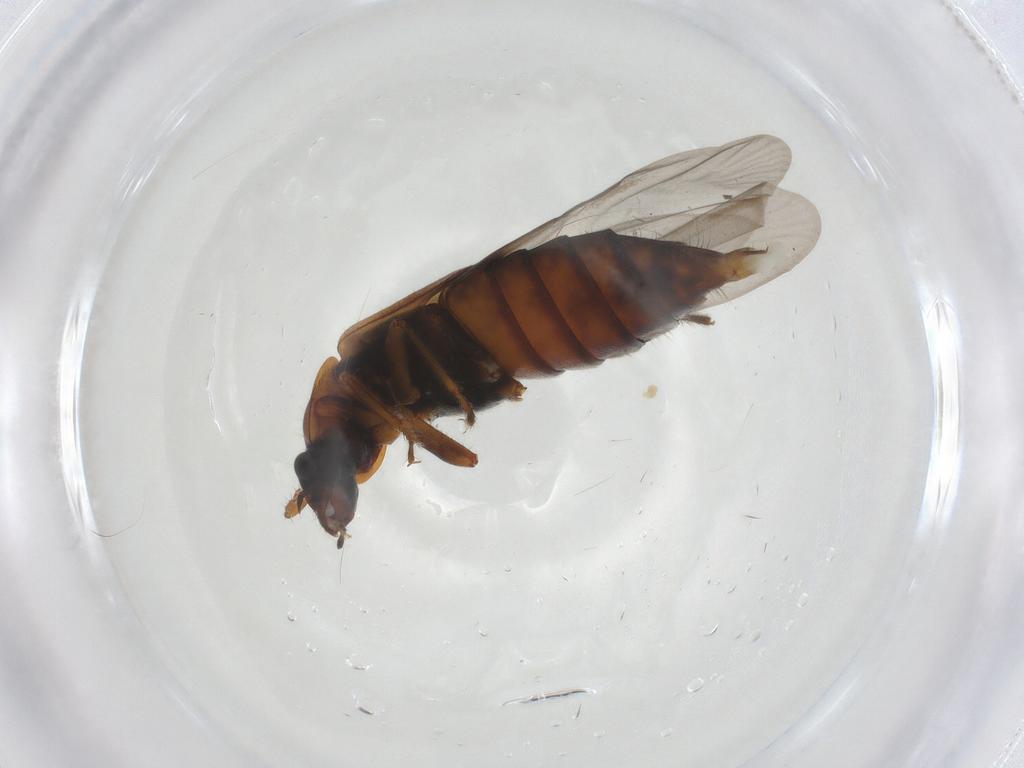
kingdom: Animalia
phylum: Arthropoda
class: Insecta
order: Coleoptera
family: Staphylinidae
